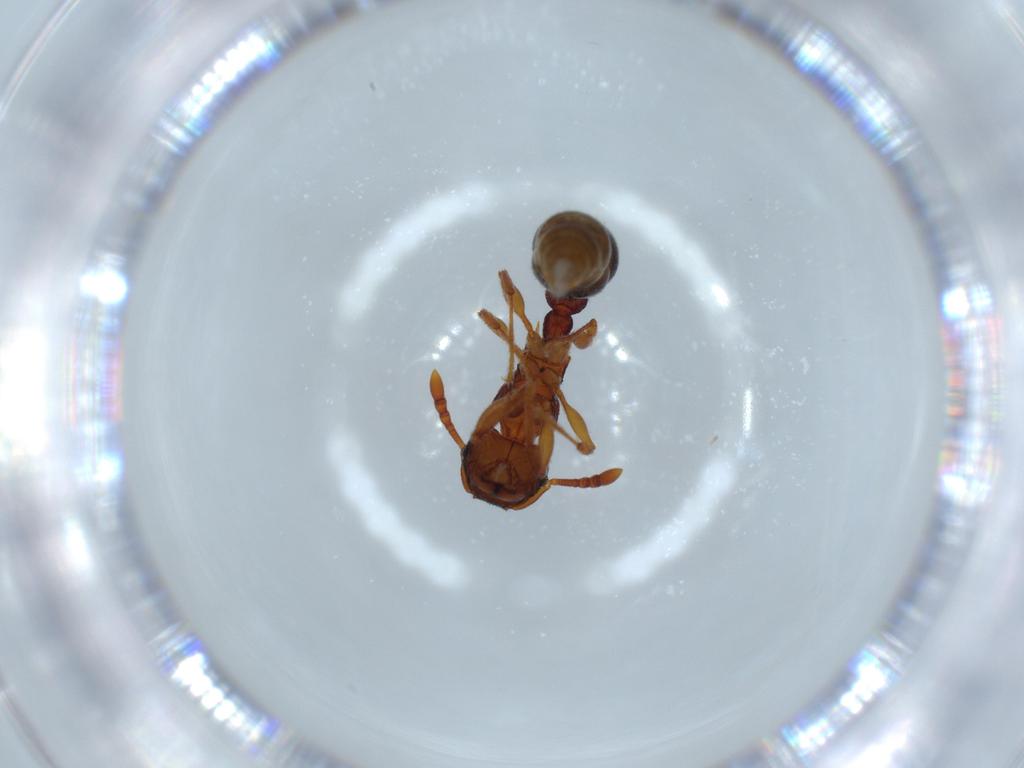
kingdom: Animalia
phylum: Arthropoda
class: Insecta
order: Hymenoptera
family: Formicidae
